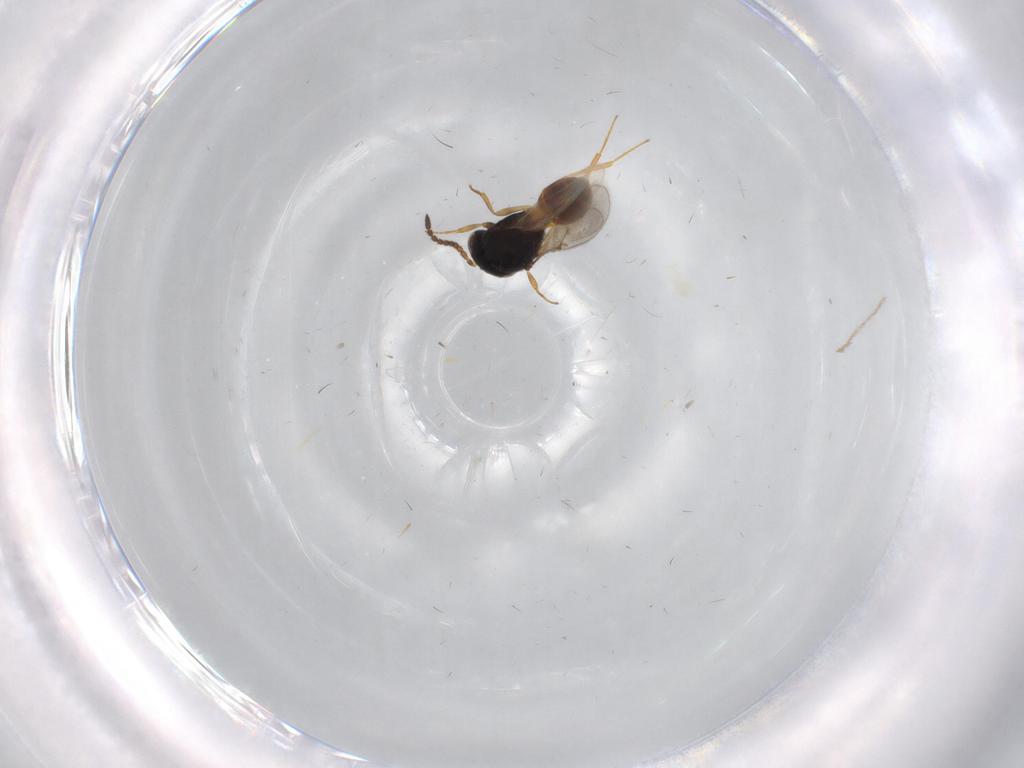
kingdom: Animalia
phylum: Arthropoda
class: Insecta
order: Hymenoptera
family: Scelionidae
